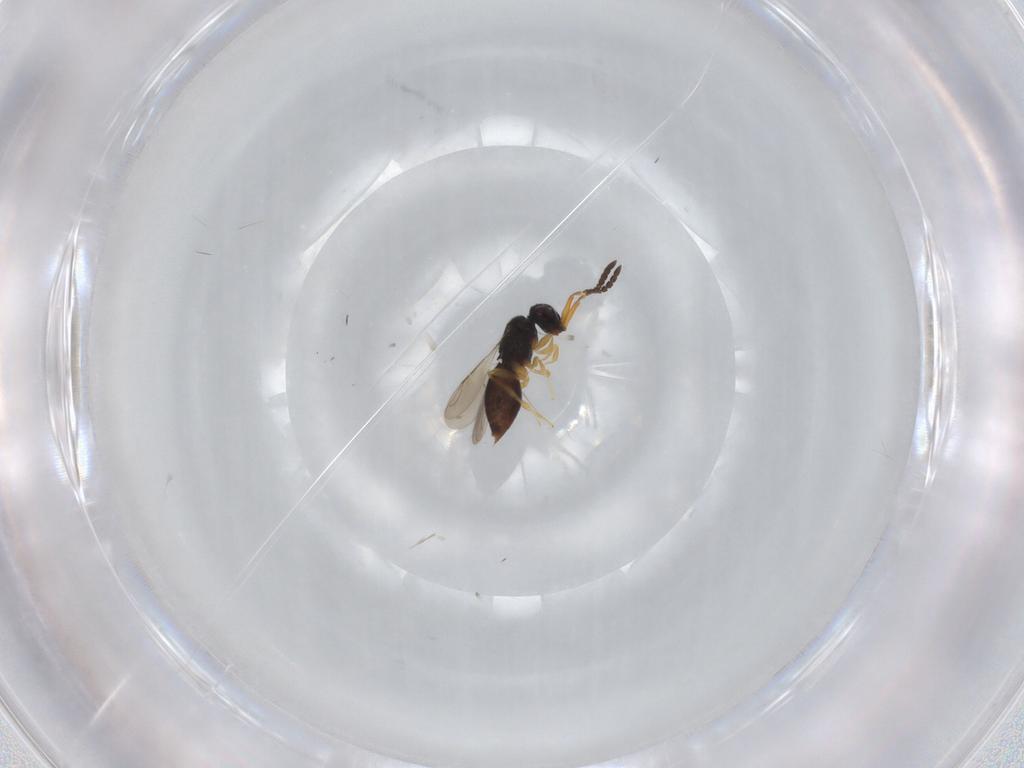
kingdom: Animalia
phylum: Arthropoda
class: Insecta
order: Hymenoptera
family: Ceraphronidae
